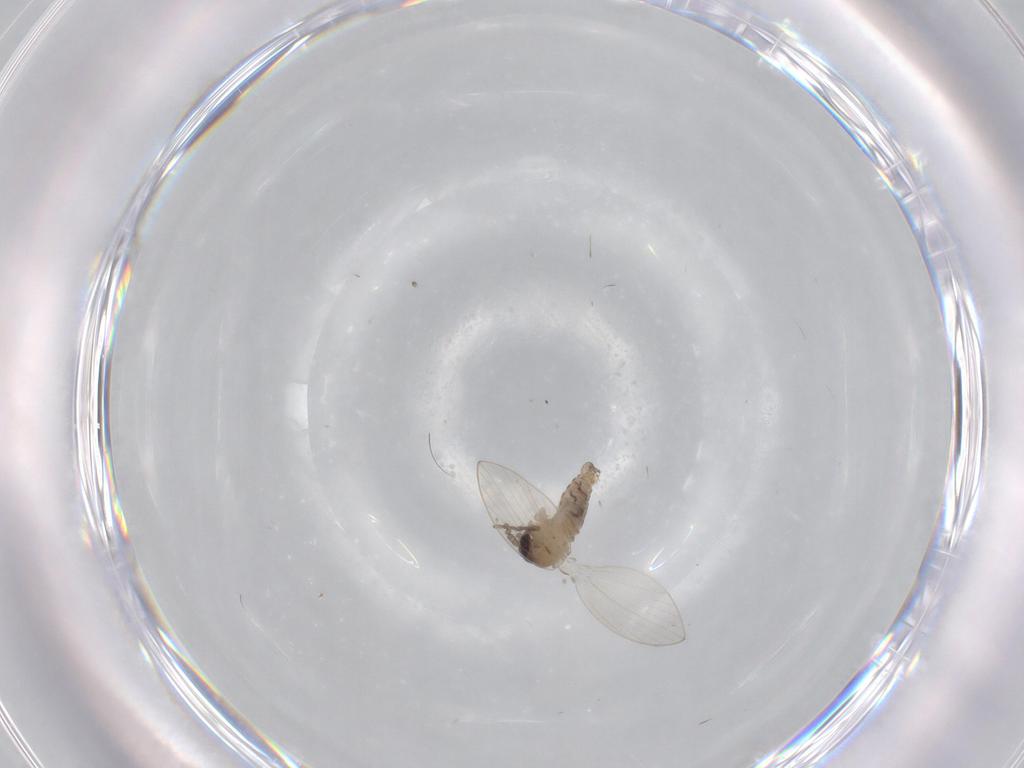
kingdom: Animalia
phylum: Arthropoda
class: Insecta
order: Diptera
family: Psychodidae
